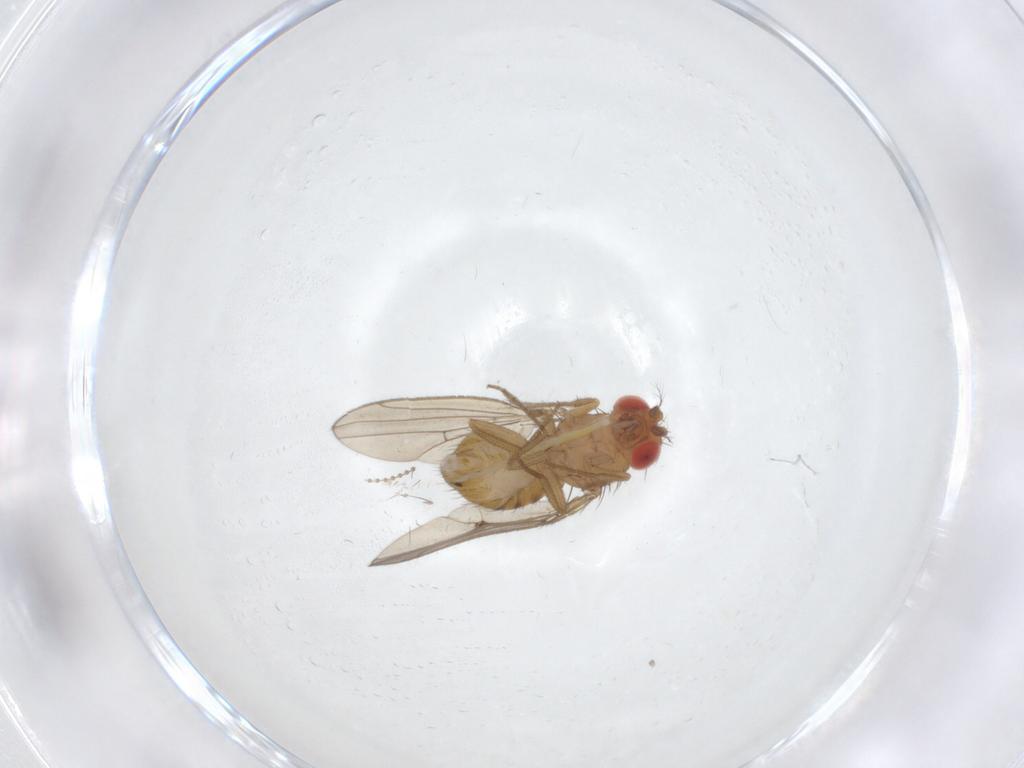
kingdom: Animalia
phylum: Arthropoda
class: Insecta
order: Diptera
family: Drosophilidae
